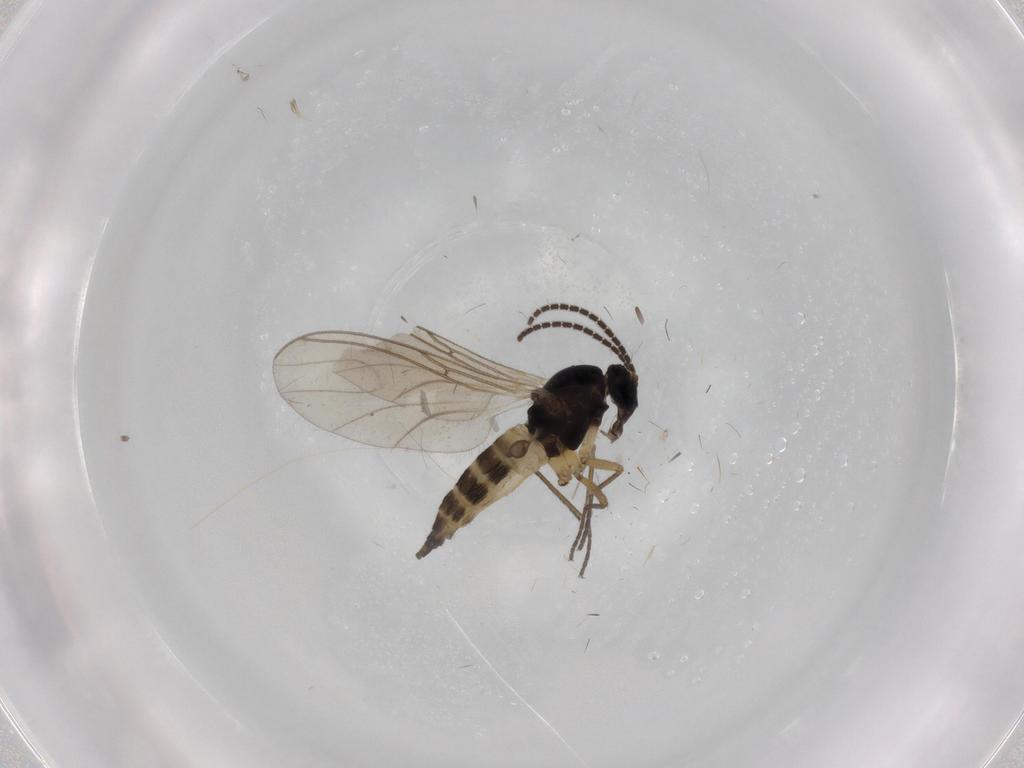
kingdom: Animalia
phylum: Arthropoda
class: Insecta
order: Diptera
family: Sciaridae
